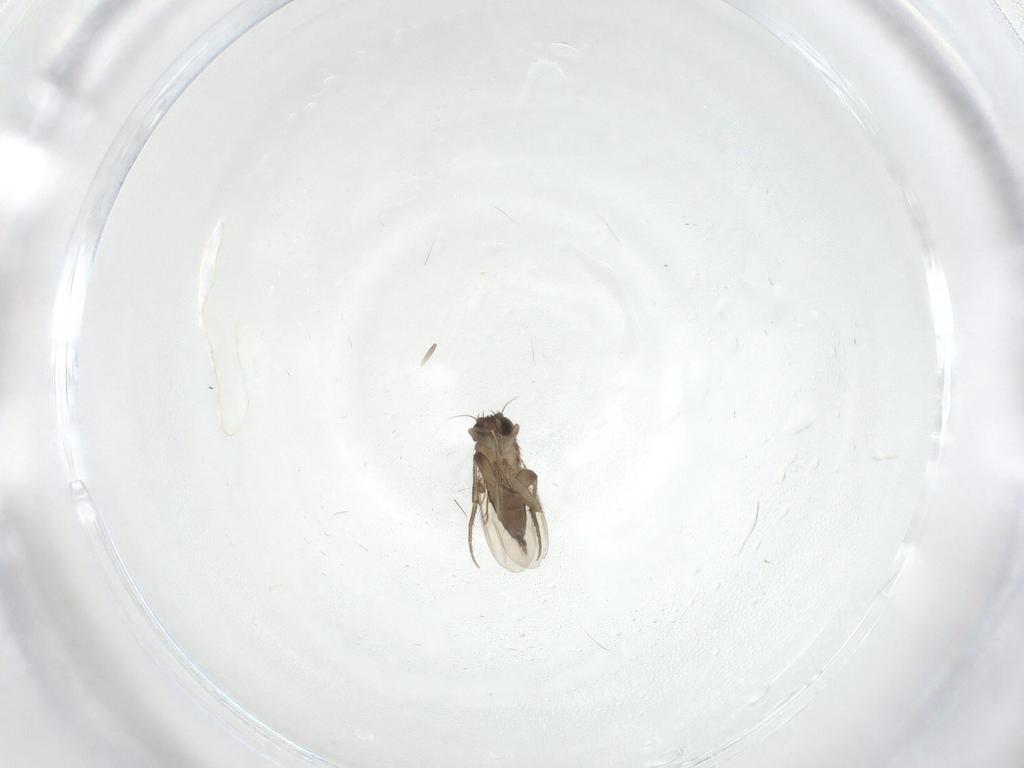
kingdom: Animalia
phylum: Arthropoda
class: Insecta
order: Diptera
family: Phoridae
